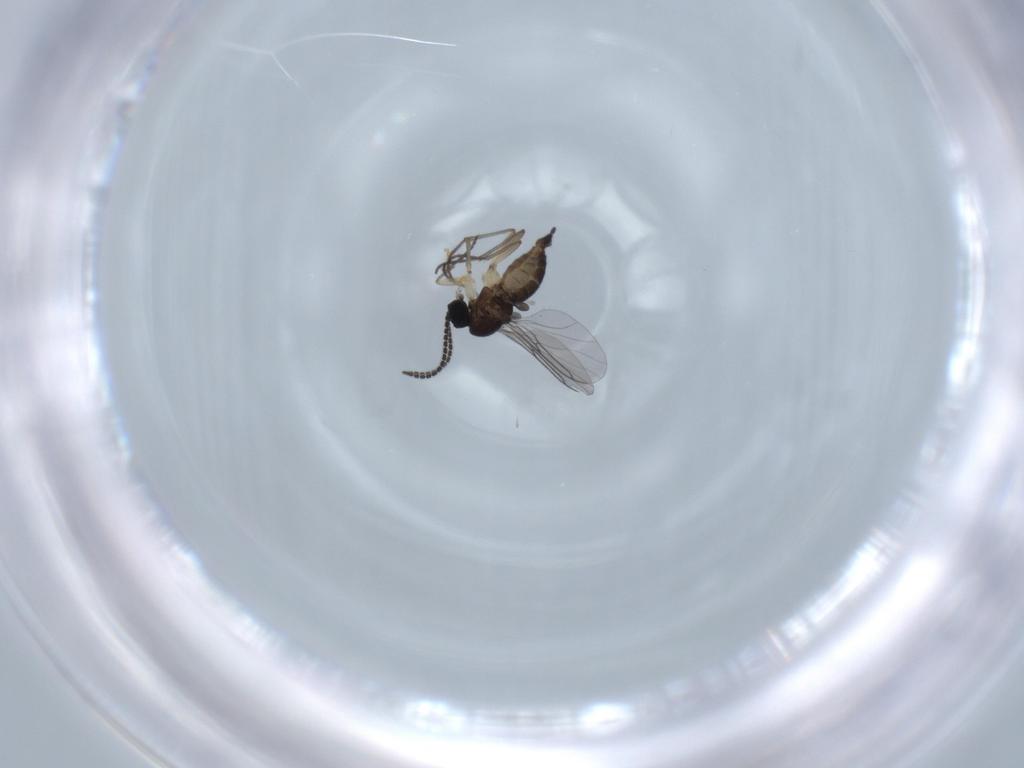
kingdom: Animalia
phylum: Arthropoda
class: Insecta
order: Diptera
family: Sciaridae
